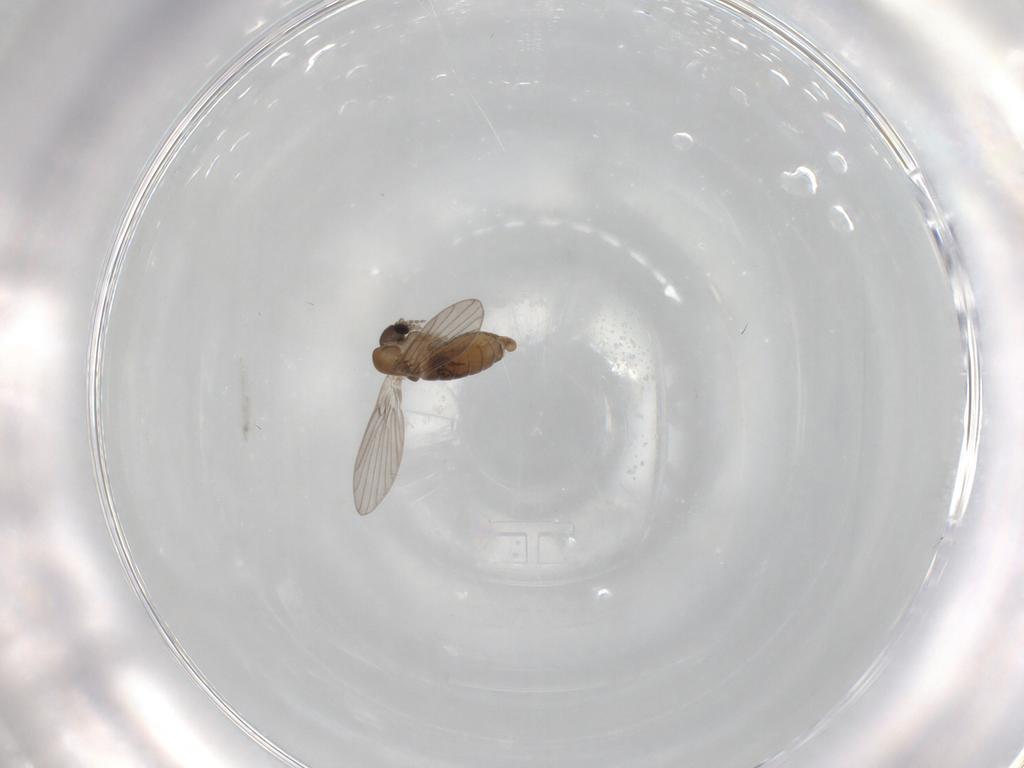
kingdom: Animalia
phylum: Arthropoda
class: Insecta
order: Diptera
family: Psychodidae
